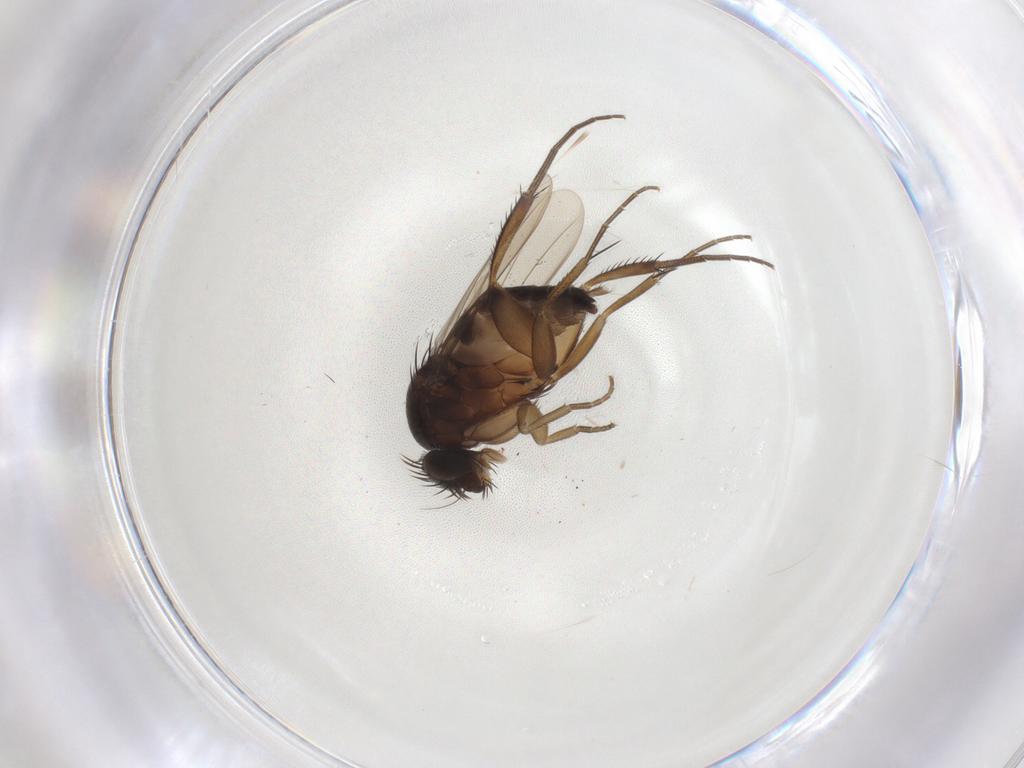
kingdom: Animalia
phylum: Arthropoda
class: Insecta
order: Diptera
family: Phoridae
